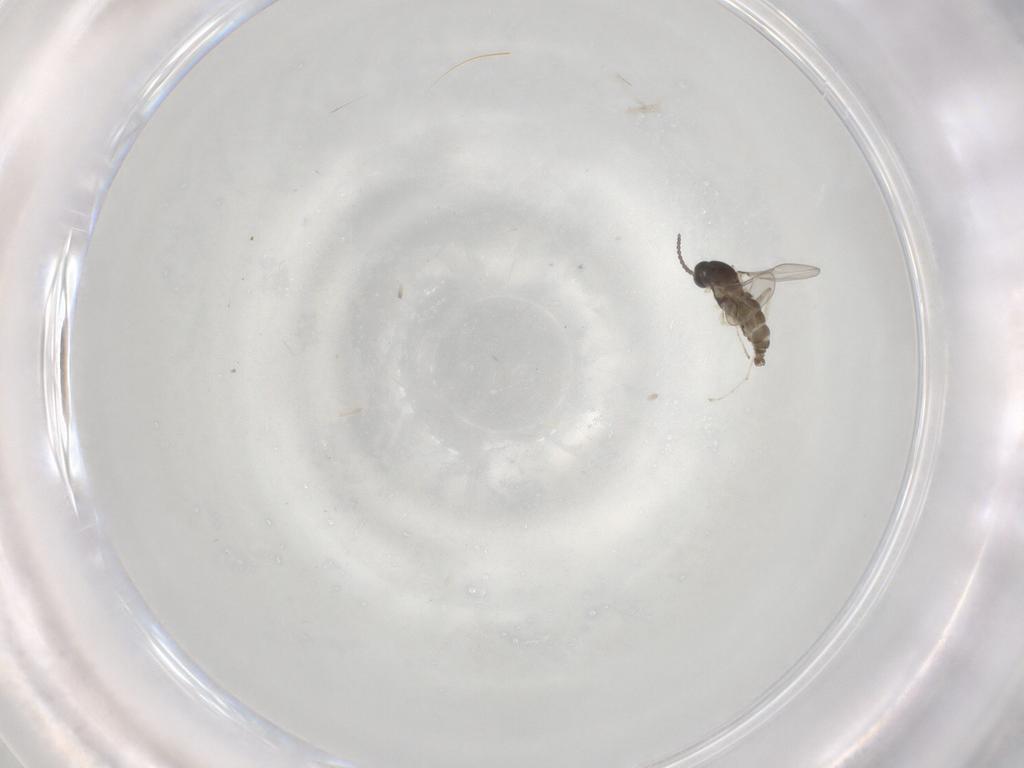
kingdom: Animalia
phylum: Arthropoda
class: Insecta
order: Diptera
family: Cecidomyiidae
